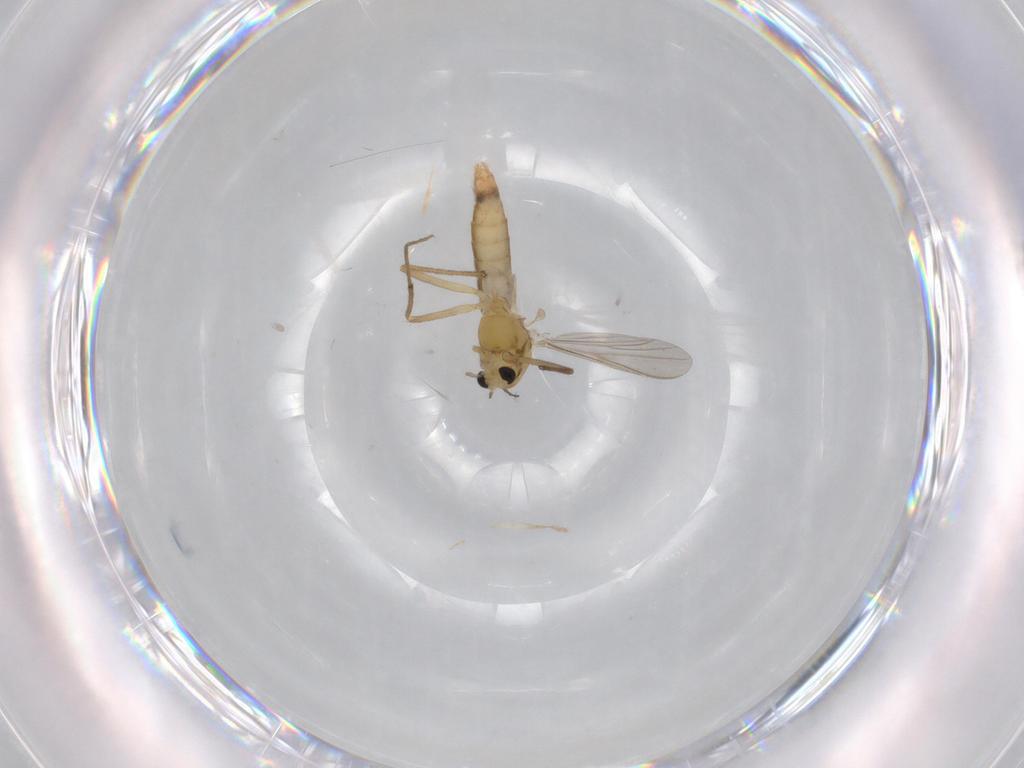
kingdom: Animalia
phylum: Arthropoda
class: Insecta
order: Diptera
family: Chironomidae
